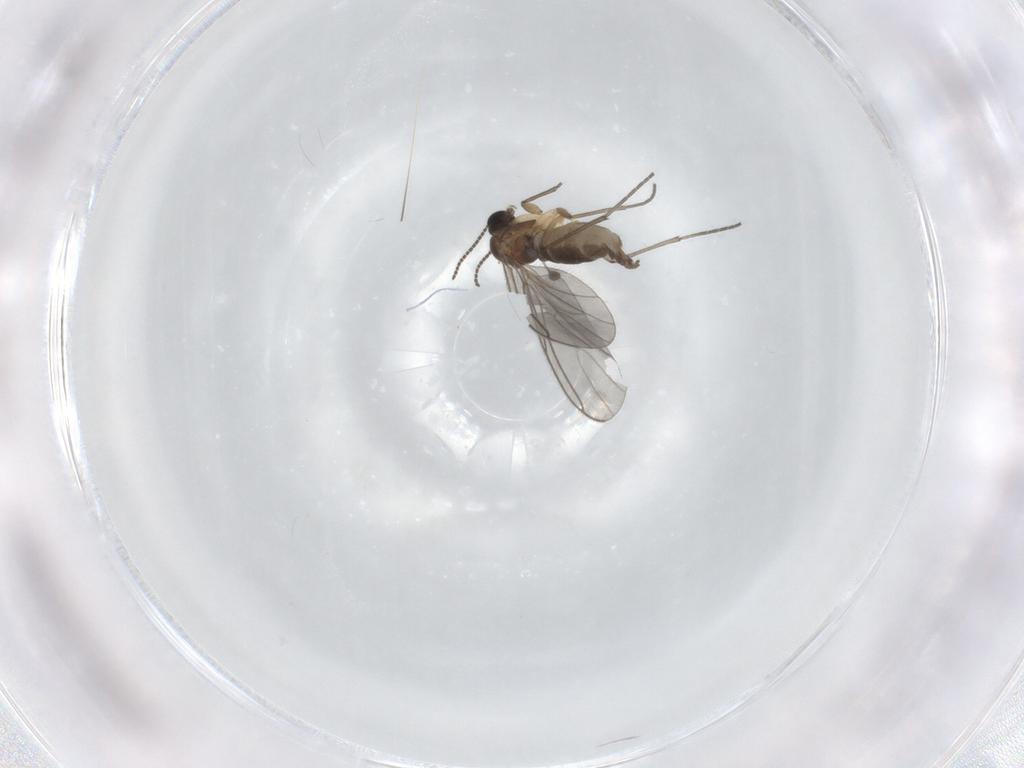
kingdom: Animalia
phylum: Arthropoda
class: Insecta
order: Diptera
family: Sciaridae
